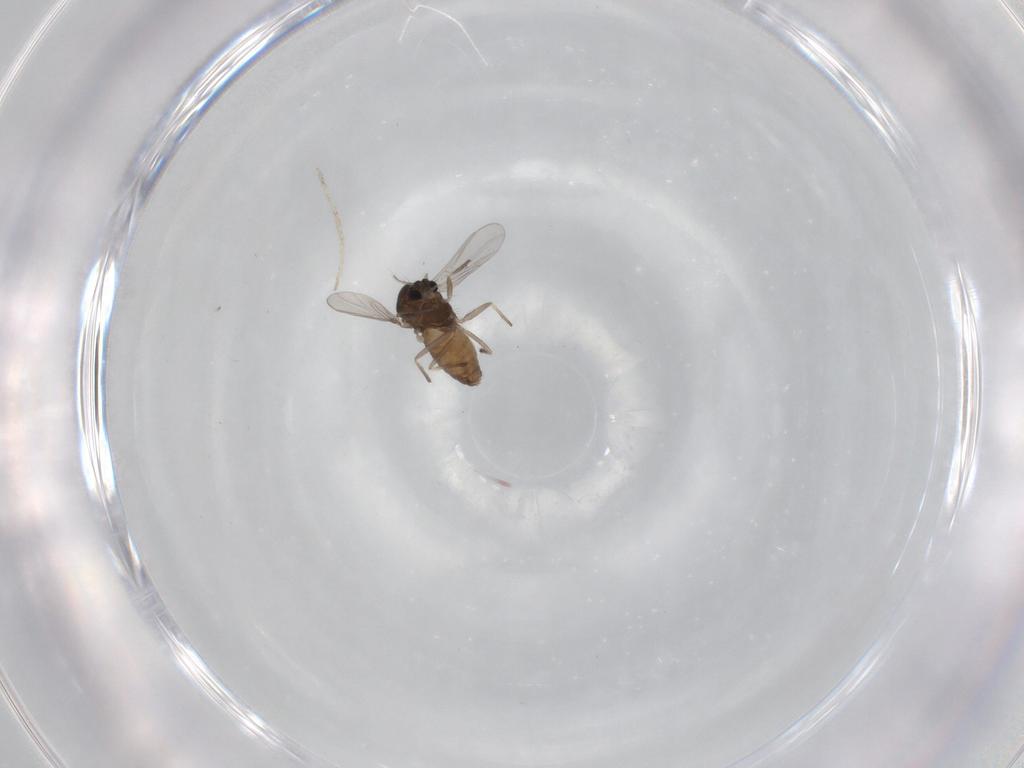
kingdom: Animalia
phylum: Arthropoda
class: Insecta
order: Diptera
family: Chironomidae
